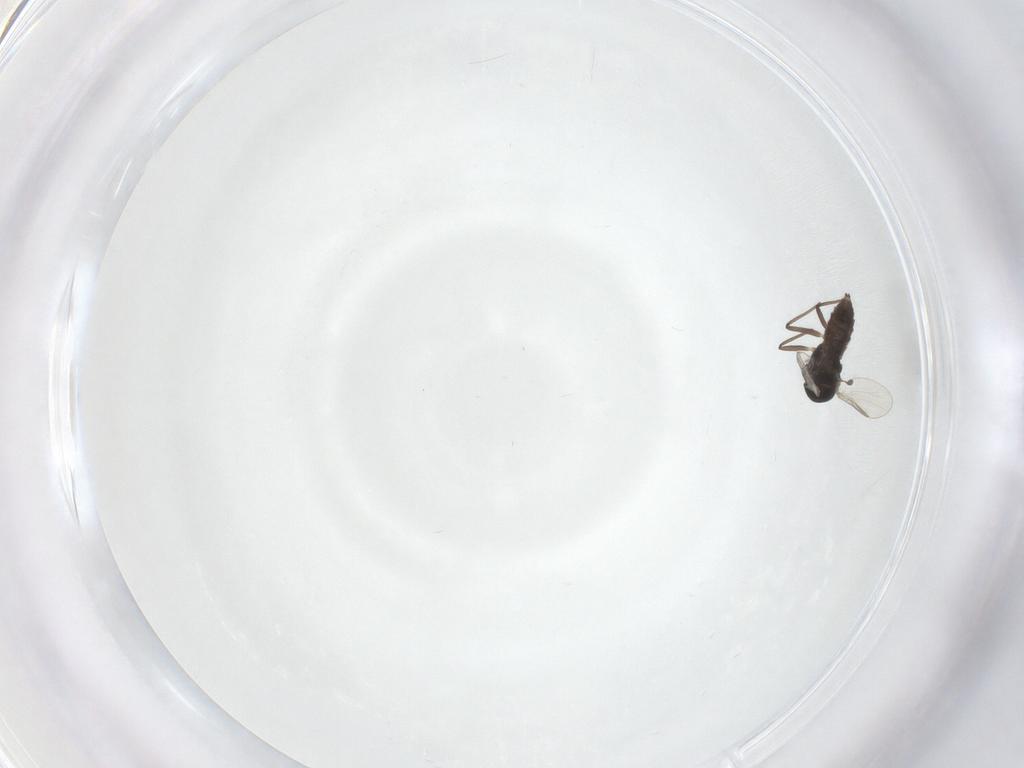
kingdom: Animalia
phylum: Arthropoda
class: Insecta
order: Diptera
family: Chironomidae
